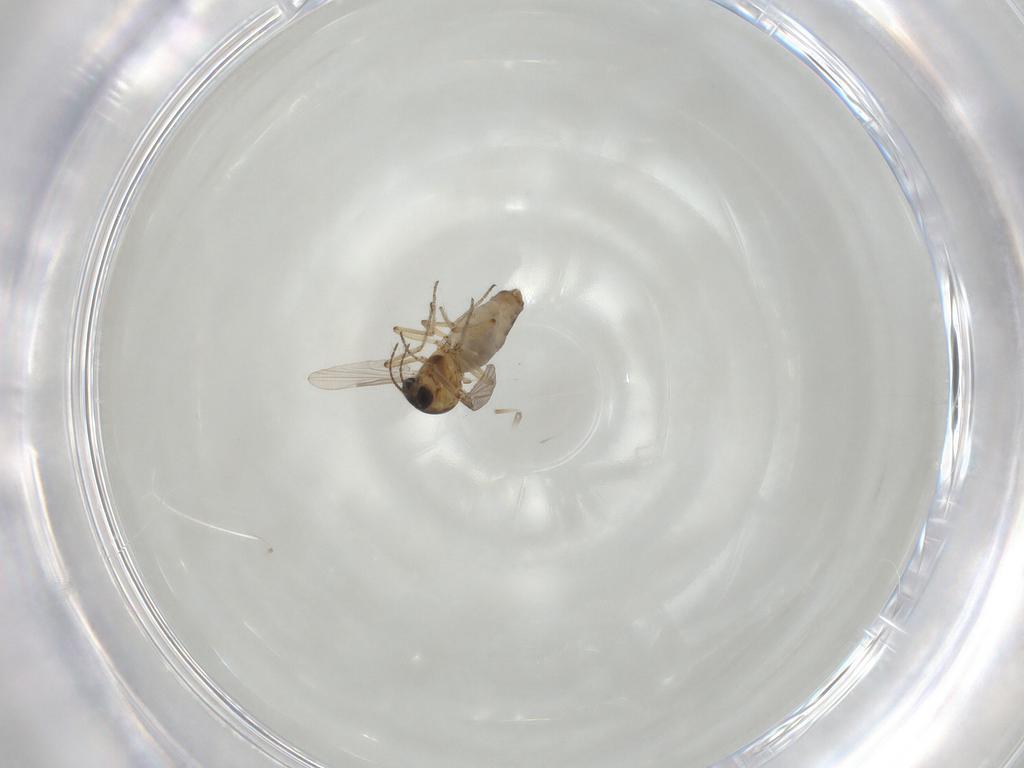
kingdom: Animalia
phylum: Arthropoda
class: Insecta
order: Diptera
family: Ceratopogonidae
